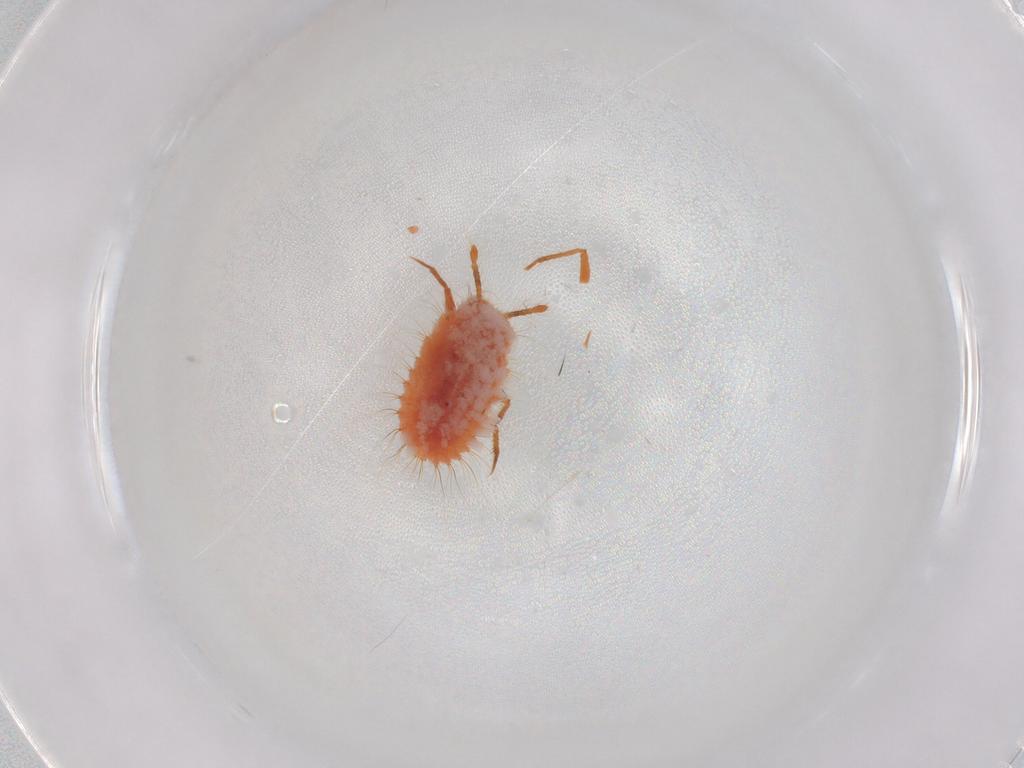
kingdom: Animalia
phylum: Arthropoda
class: Insecta
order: Hemiptera
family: Coccoidea_incertae_sedis
